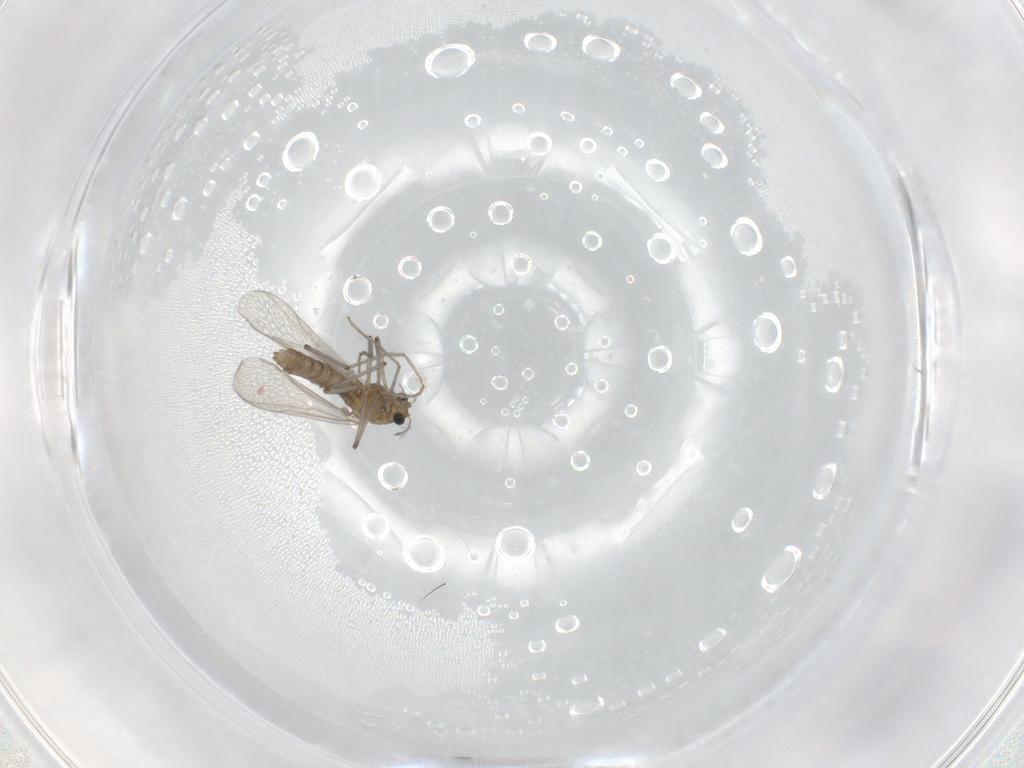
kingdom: Animalia
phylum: Arthropoda
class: Insecta
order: Diptera
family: Chironomidae
